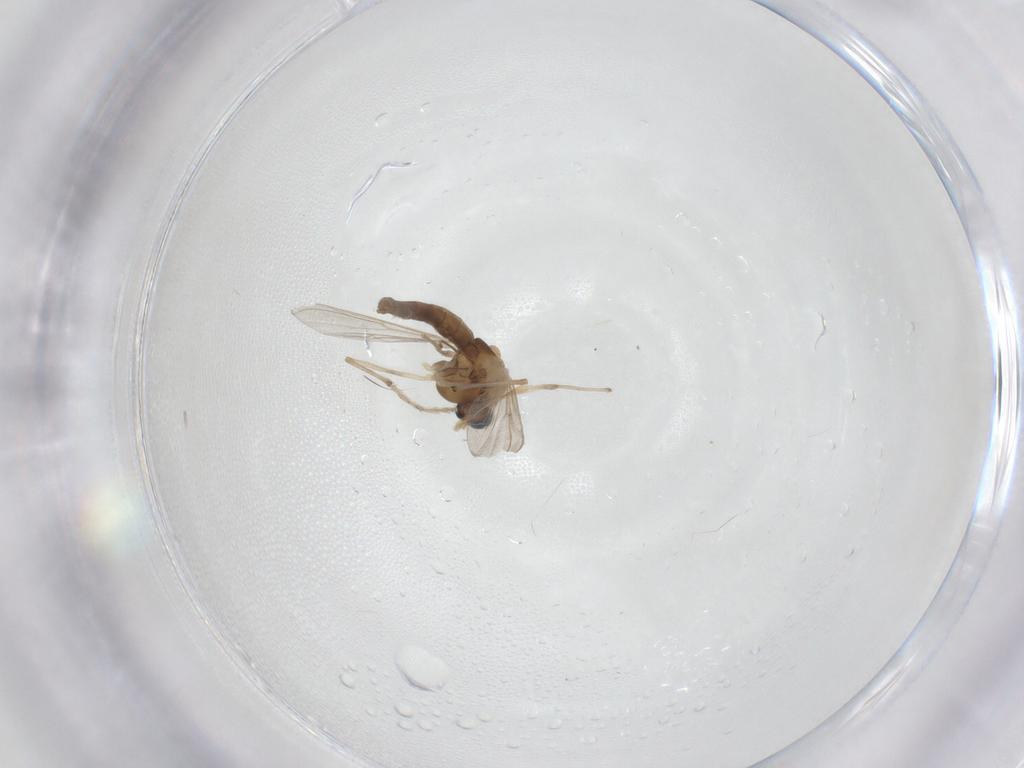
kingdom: Animalia
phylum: Arthropoda
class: Insecta
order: Diptera
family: Chironomidae
